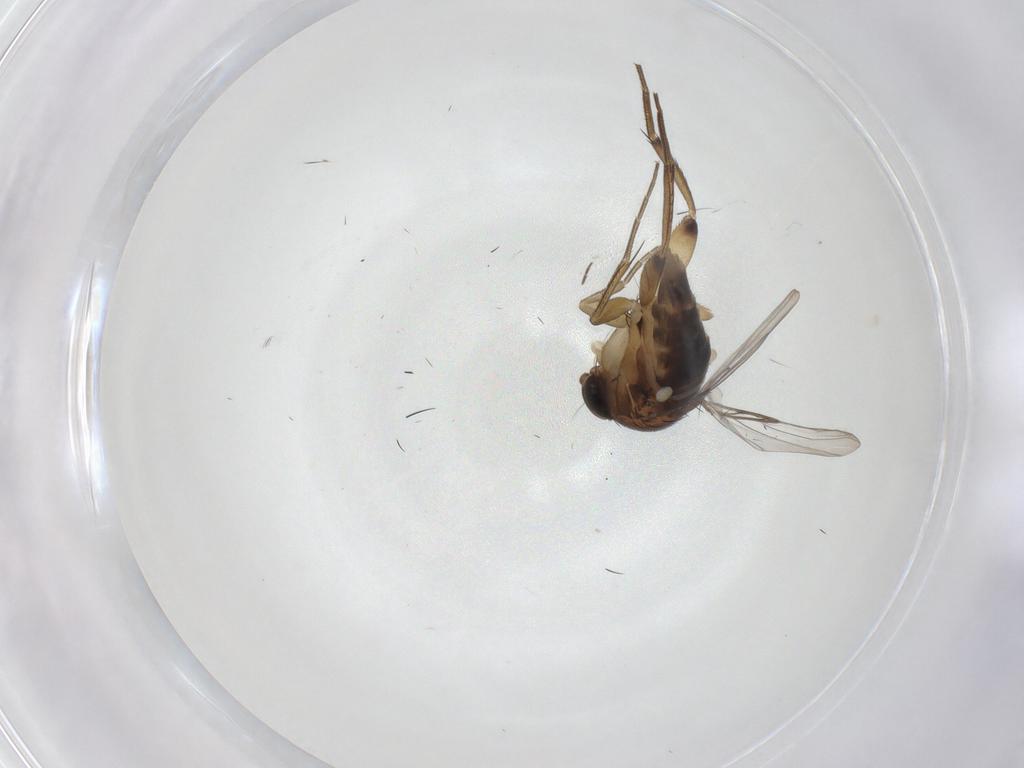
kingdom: Animalia
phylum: Arthropoda
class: Insecta
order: Diptera
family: Phoridae
